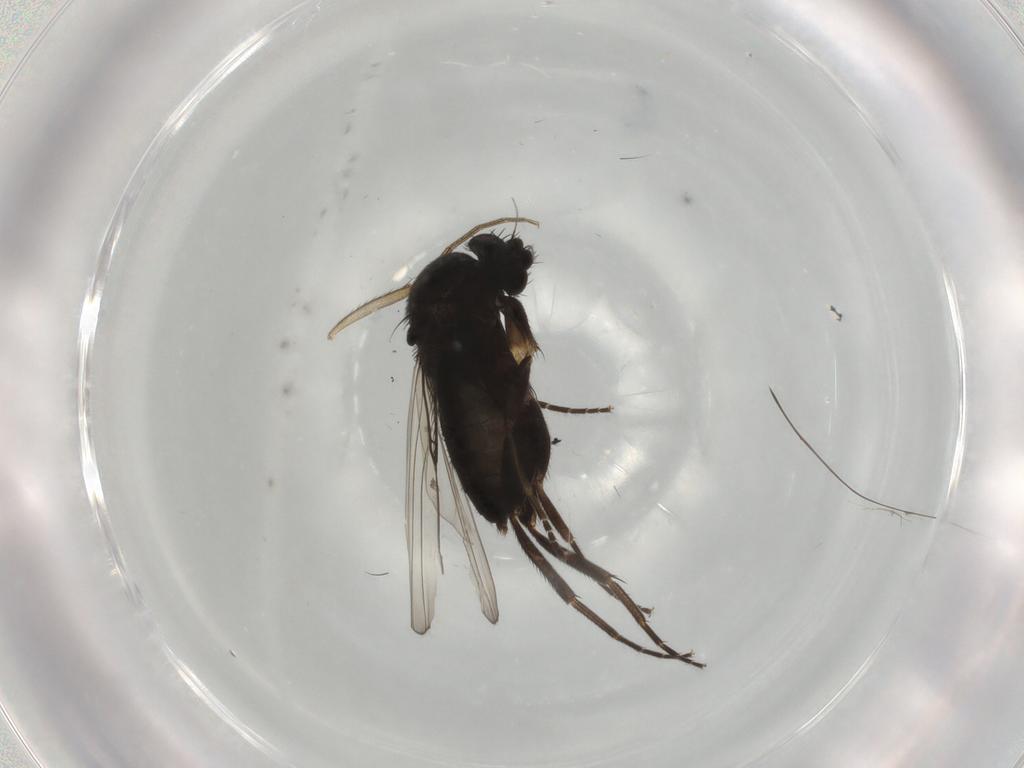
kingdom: Animalia
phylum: Arthropoda
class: Insecta
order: Diptera
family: Phoridae
